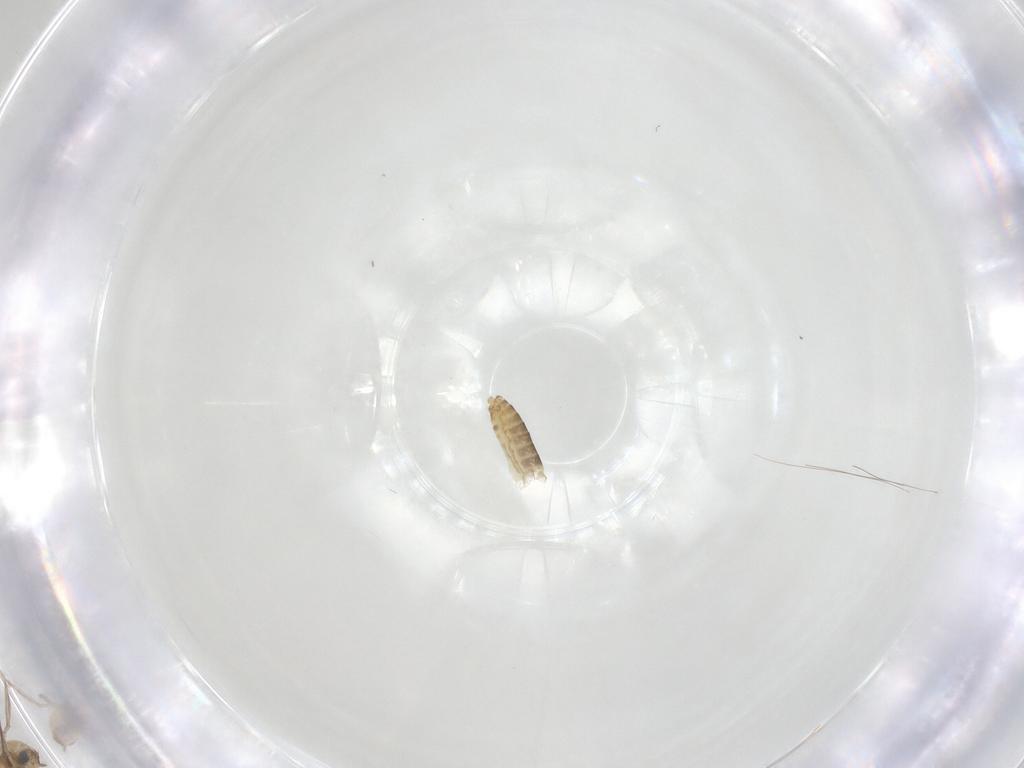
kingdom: Animalia
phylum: Arthropoda
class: Insecta
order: Diptera
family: Chironomidae
